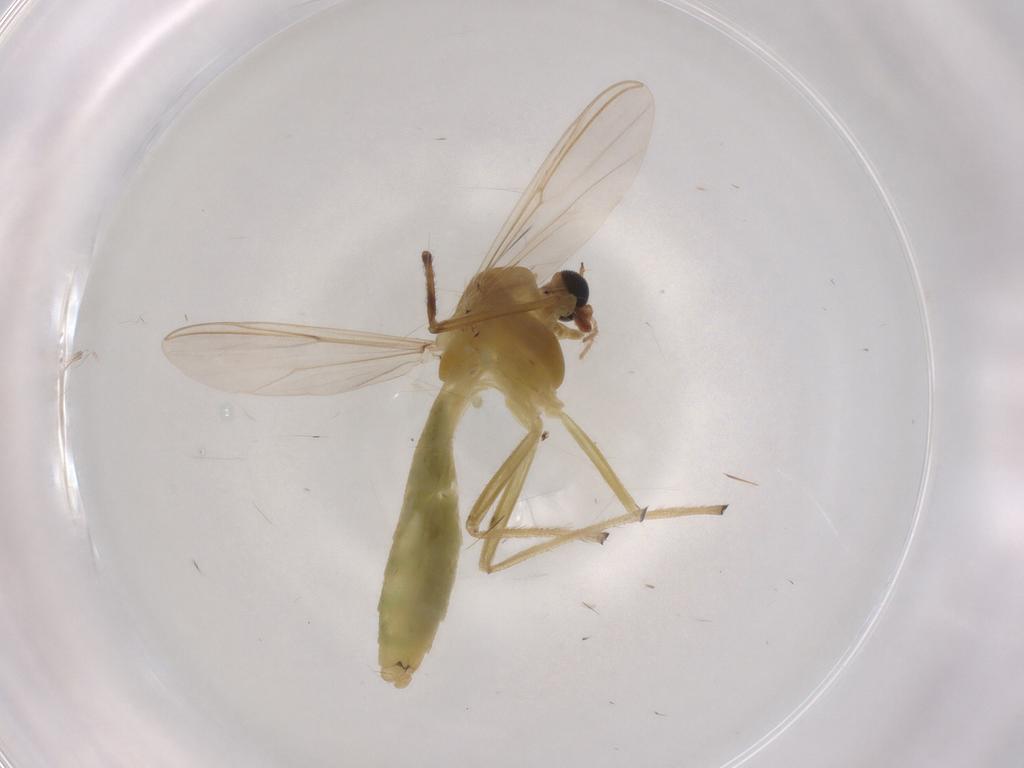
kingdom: Animalia
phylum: Arthropoda
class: Insecta
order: Diptera
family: Chironomidae
